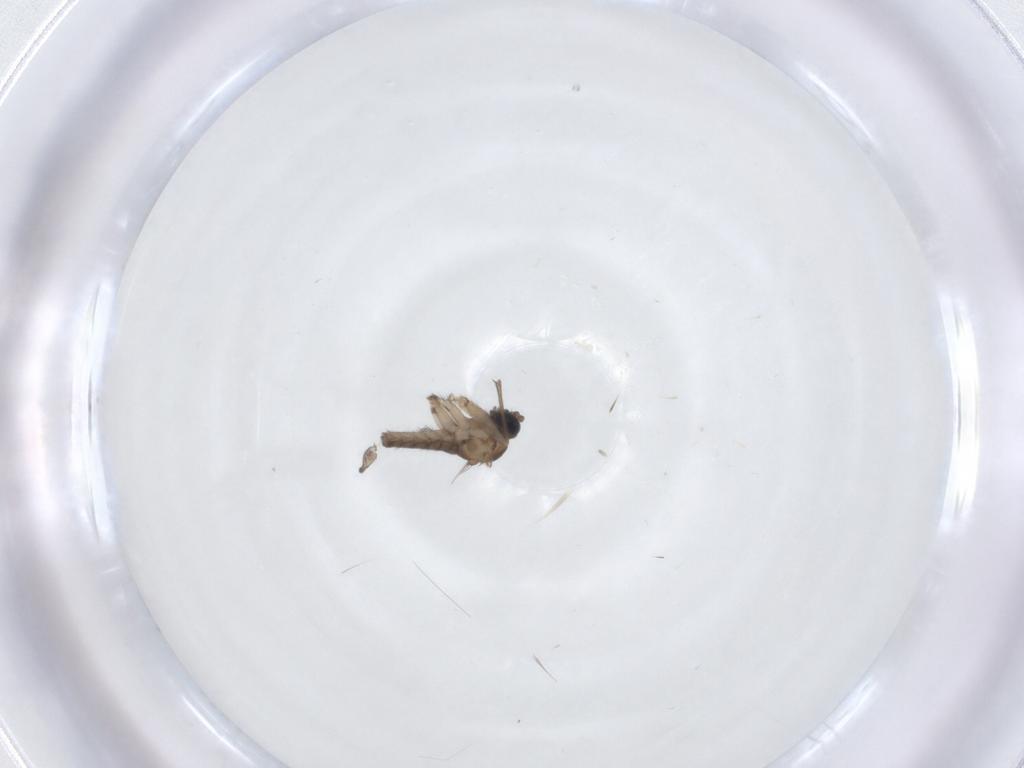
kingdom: Animalia
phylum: Arthropoda
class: Insecta
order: Diptera
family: Sciaridae
